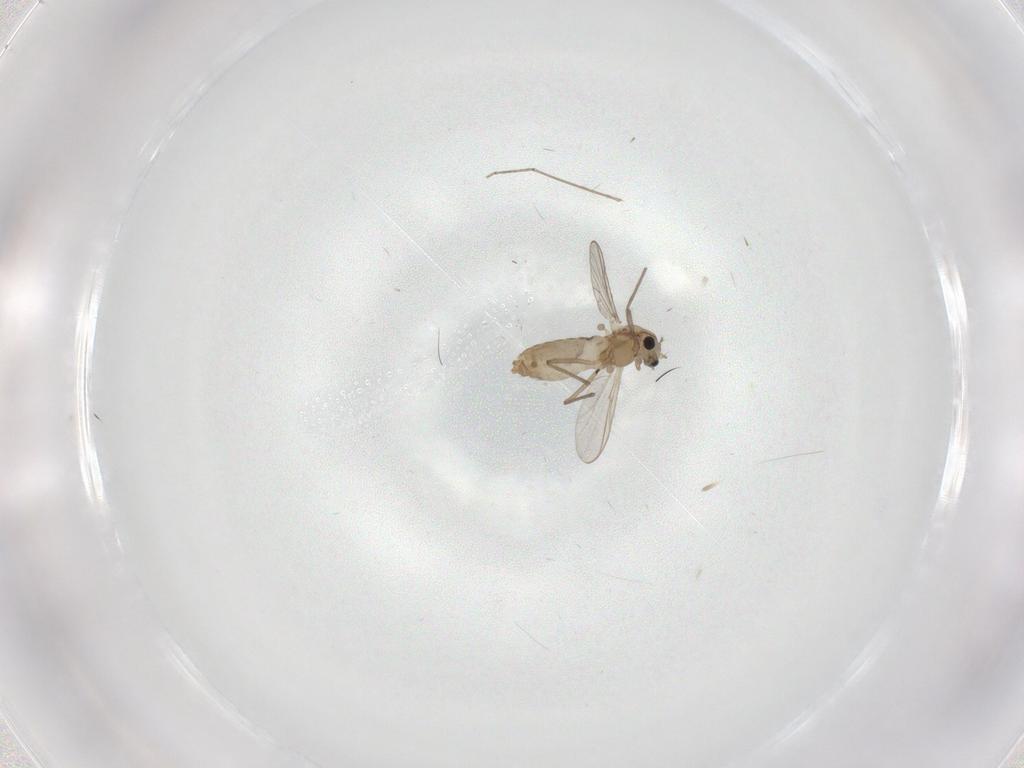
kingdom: Animalia
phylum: Arthropoda
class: Insecta
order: Diptera
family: Chironomidae
